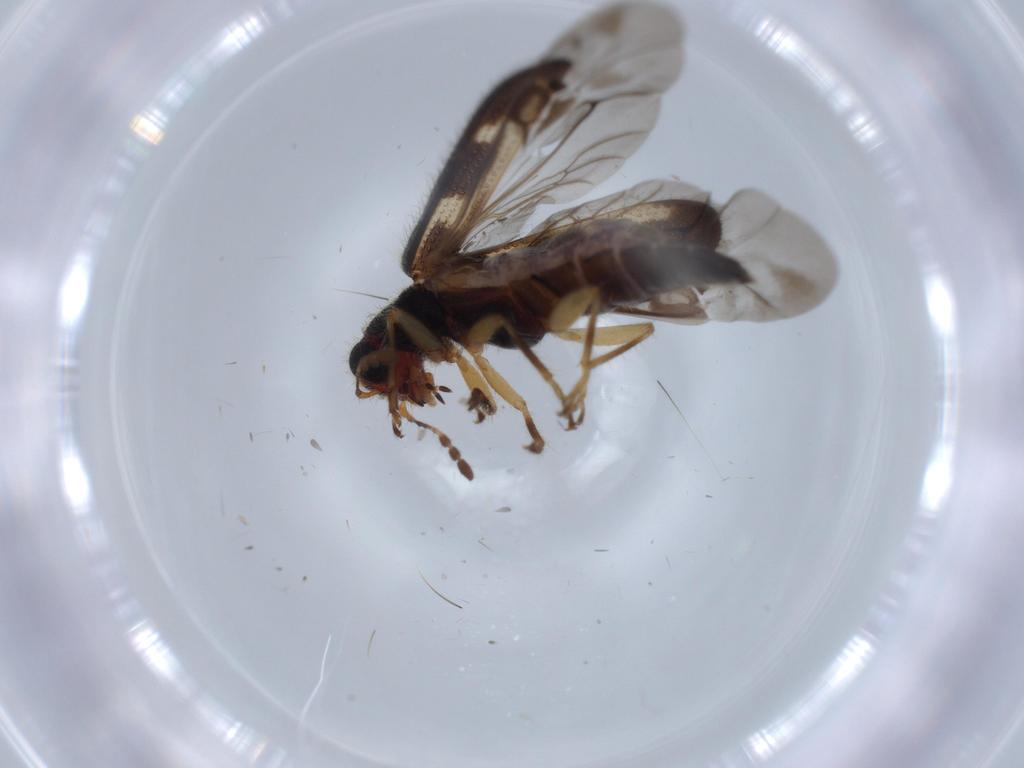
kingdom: Animalia
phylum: Arthropoda
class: Insecta
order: Coleoptera
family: Cleridae
